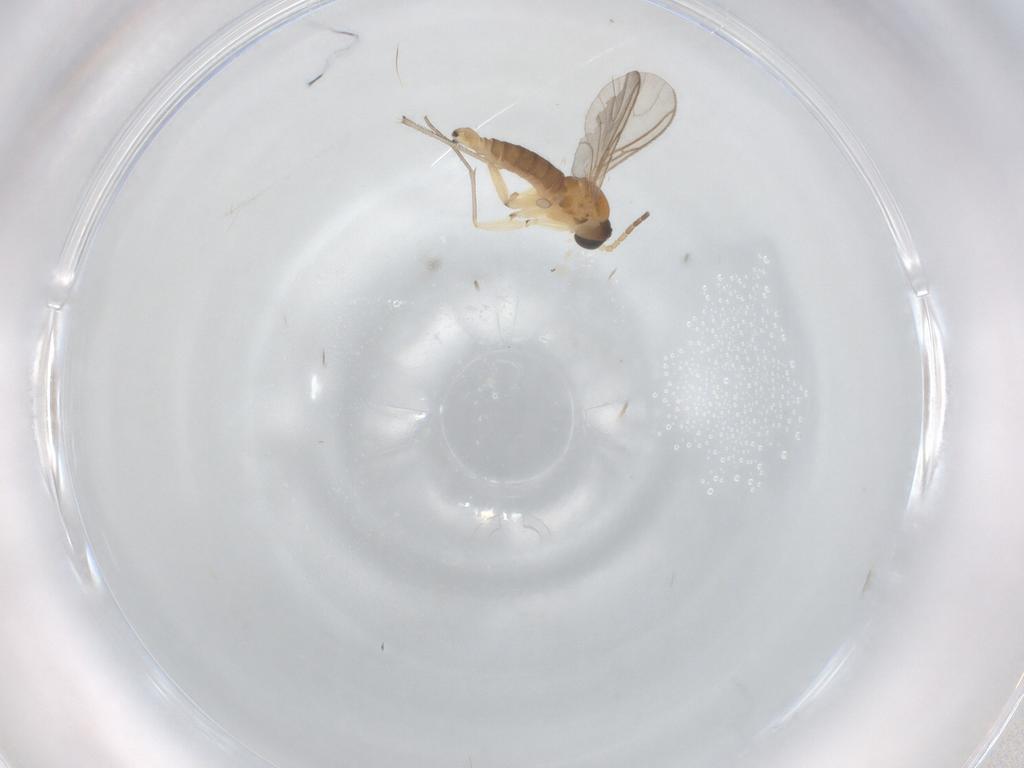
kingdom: Animalia
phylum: Arthropoda
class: Insecta
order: Diptera
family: Sciaridae
